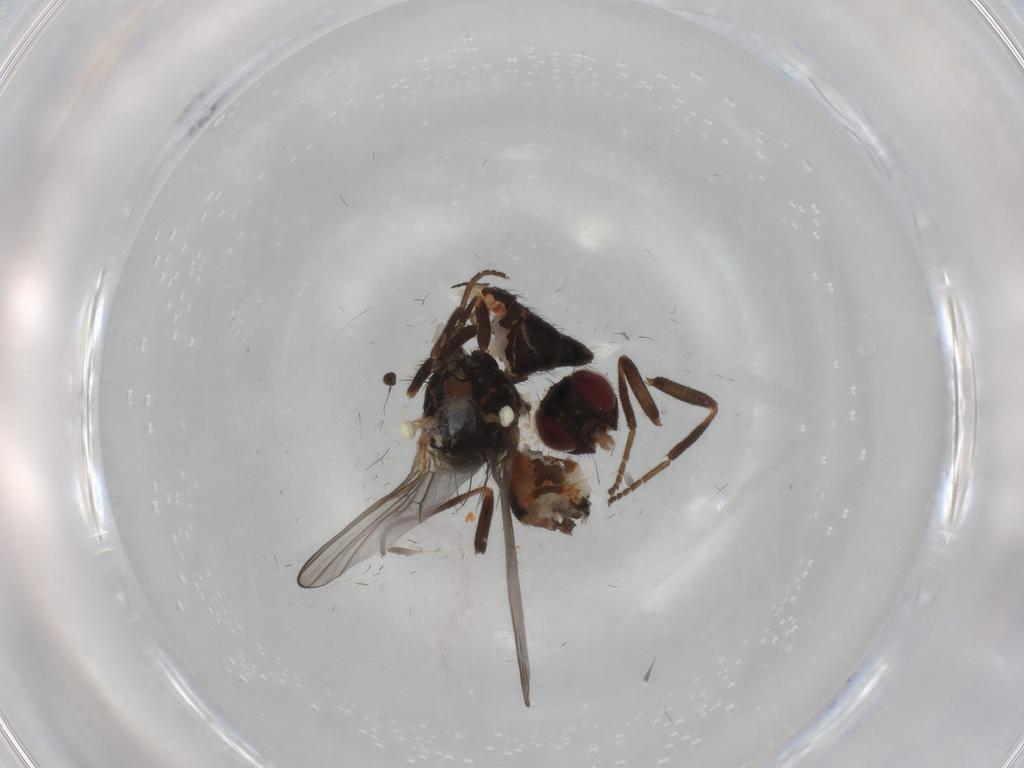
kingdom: Animalia
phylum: Arthropoda
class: Insecta
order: Diptera
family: Agromyzidae
